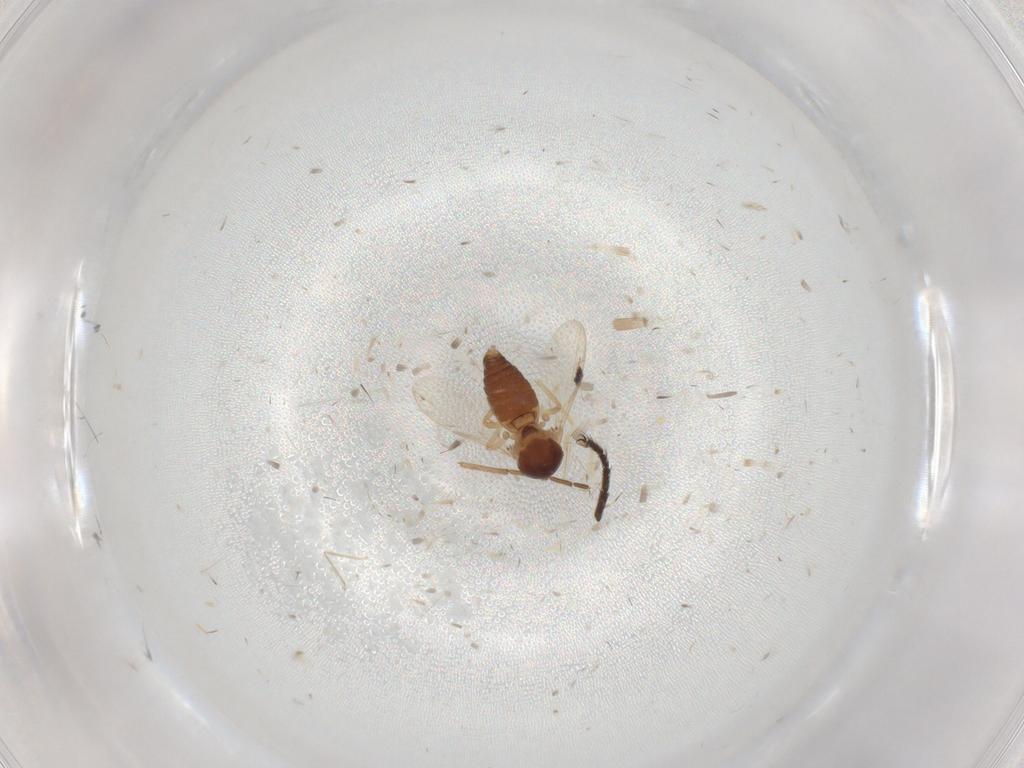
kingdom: Animalia
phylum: Arthropoda
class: Insecta
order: Diptera
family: Muscidae
